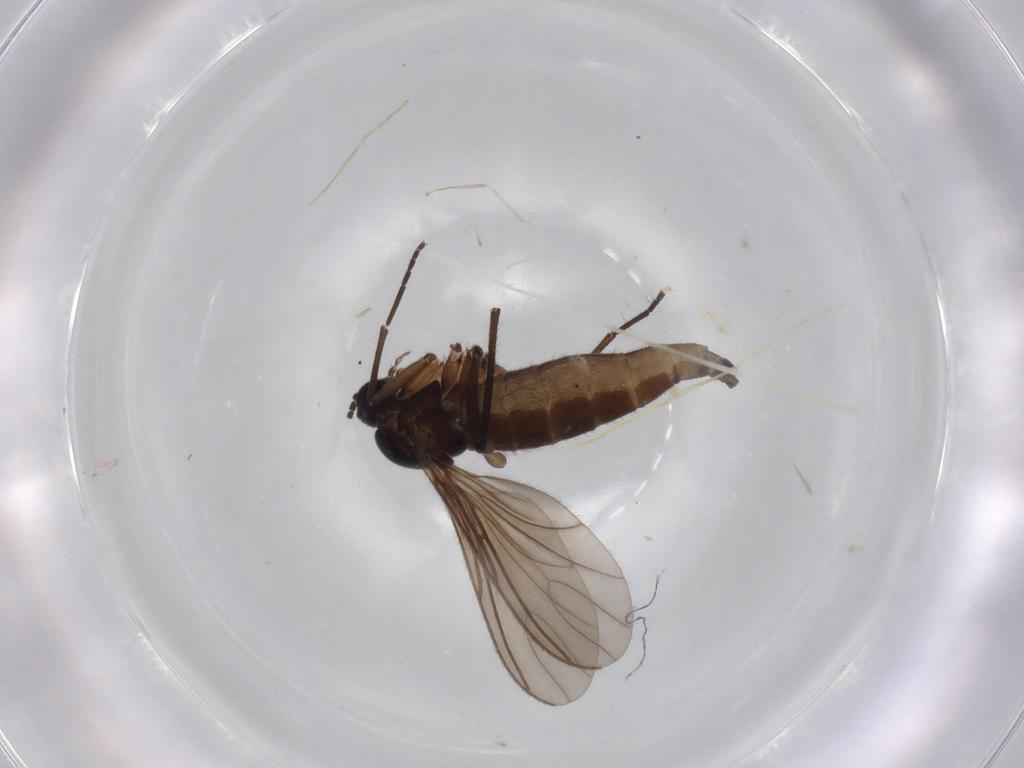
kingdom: Animalia
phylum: Arthropoda
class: Insecta
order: Diptera
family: Sciaridae
